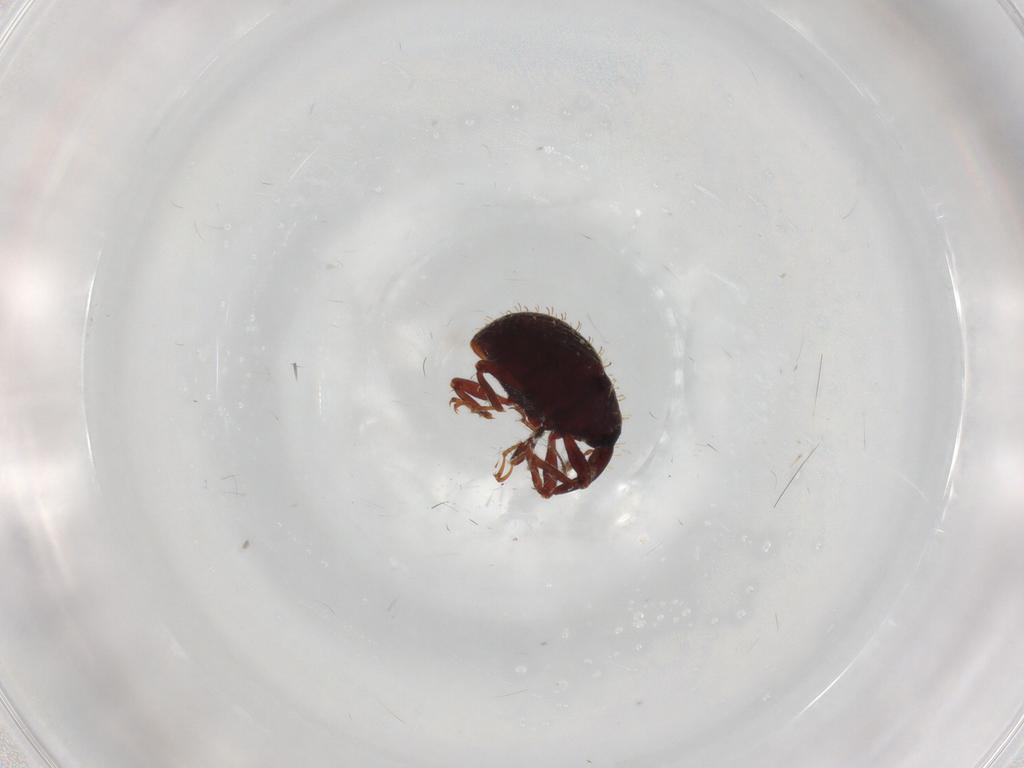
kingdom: Animalia
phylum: Arthropoda
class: Insecta
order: Coleoptera
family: Curculionidae
